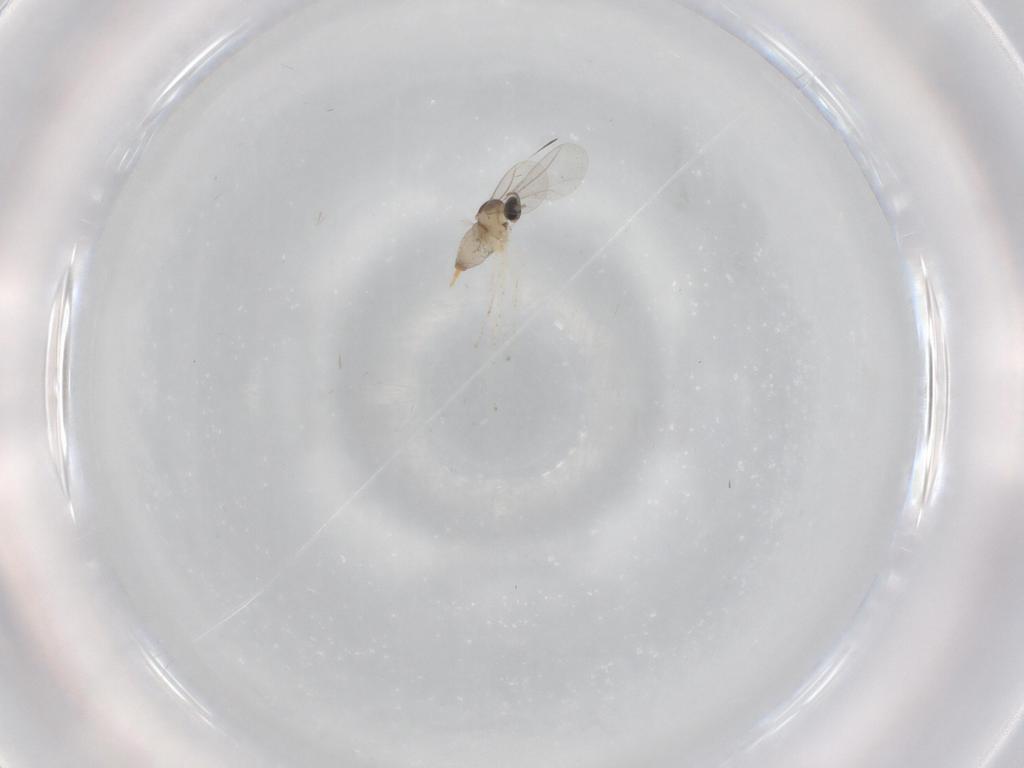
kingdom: Animalia
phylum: Arthropoda
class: Insecta
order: Diptera
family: Cecidomyiidae
